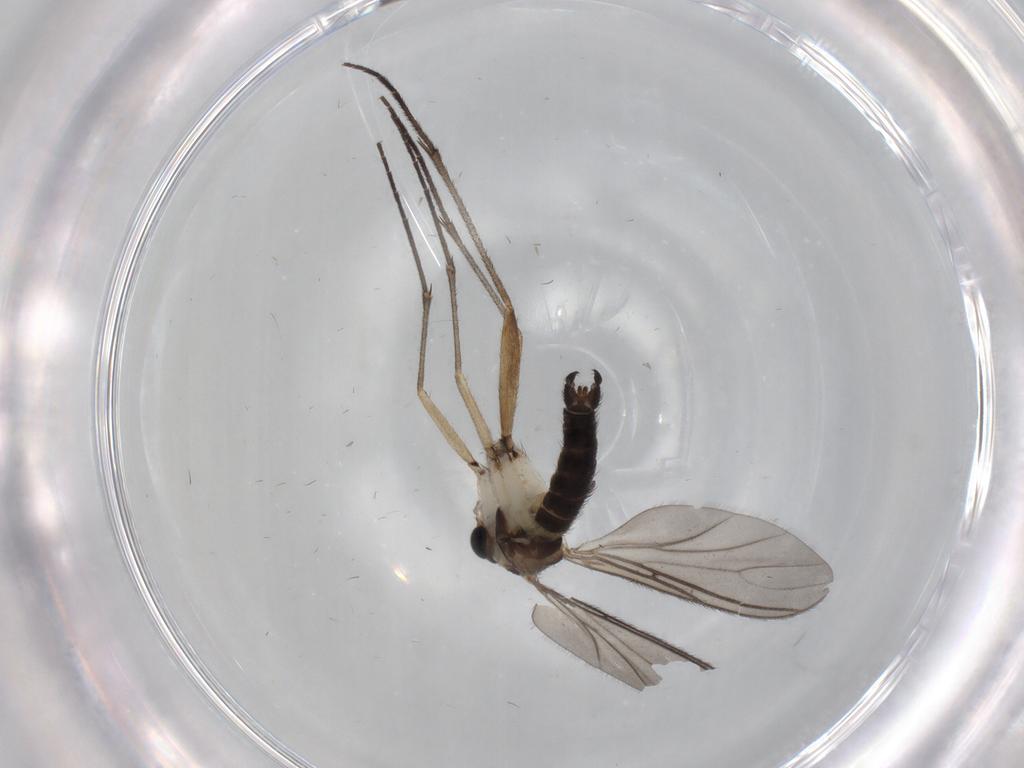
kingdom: Animalia
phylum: Arthropoda
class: Insecta
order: Diptera
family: Sciaridae
